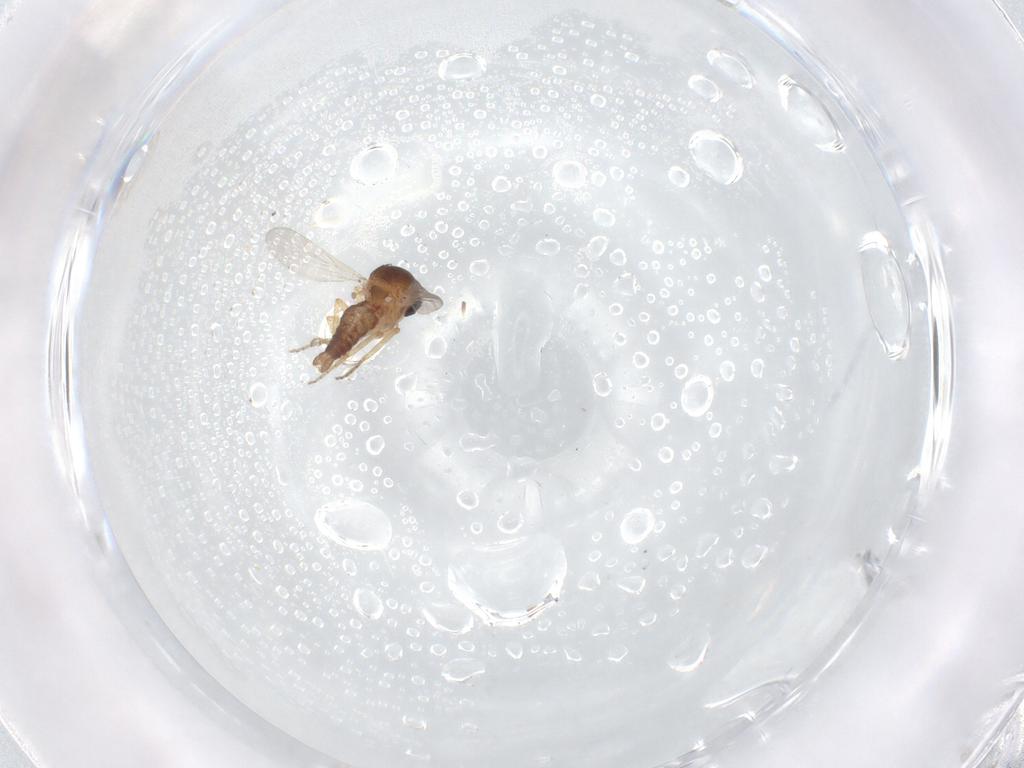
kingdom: Animalia
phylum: Arthropoda
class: Insecta
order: Diptera
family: Ceratopogonidae
